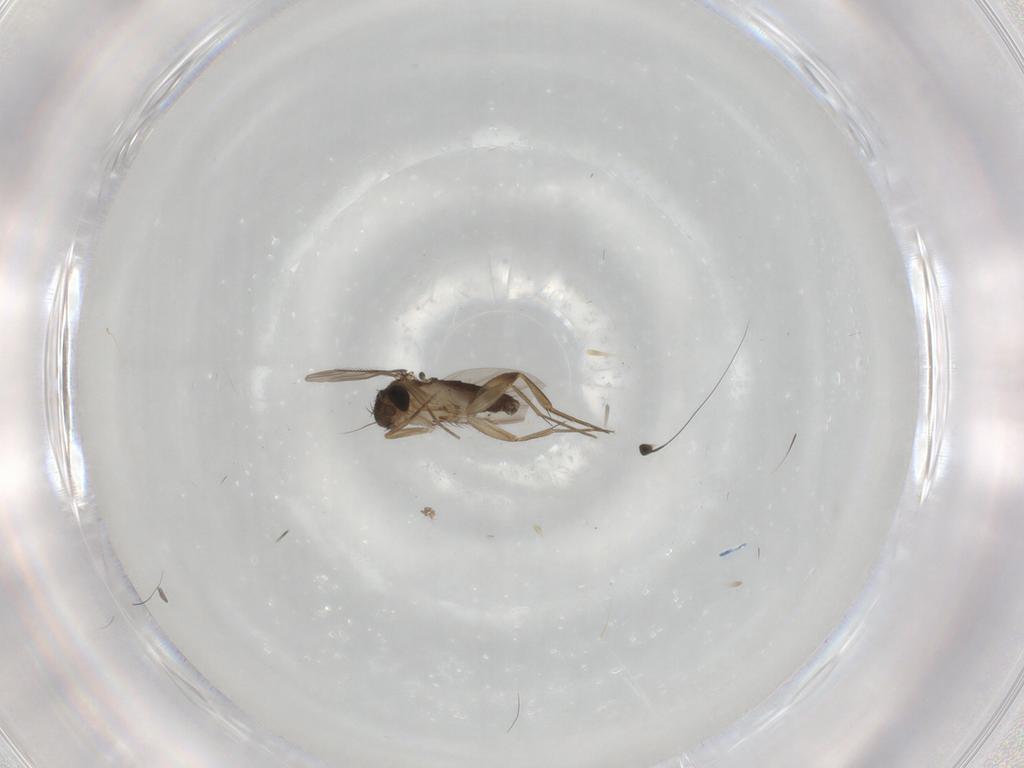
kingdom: Animalia
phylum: Arthropoda
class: Insecta
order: Diptera
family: Phoridae
